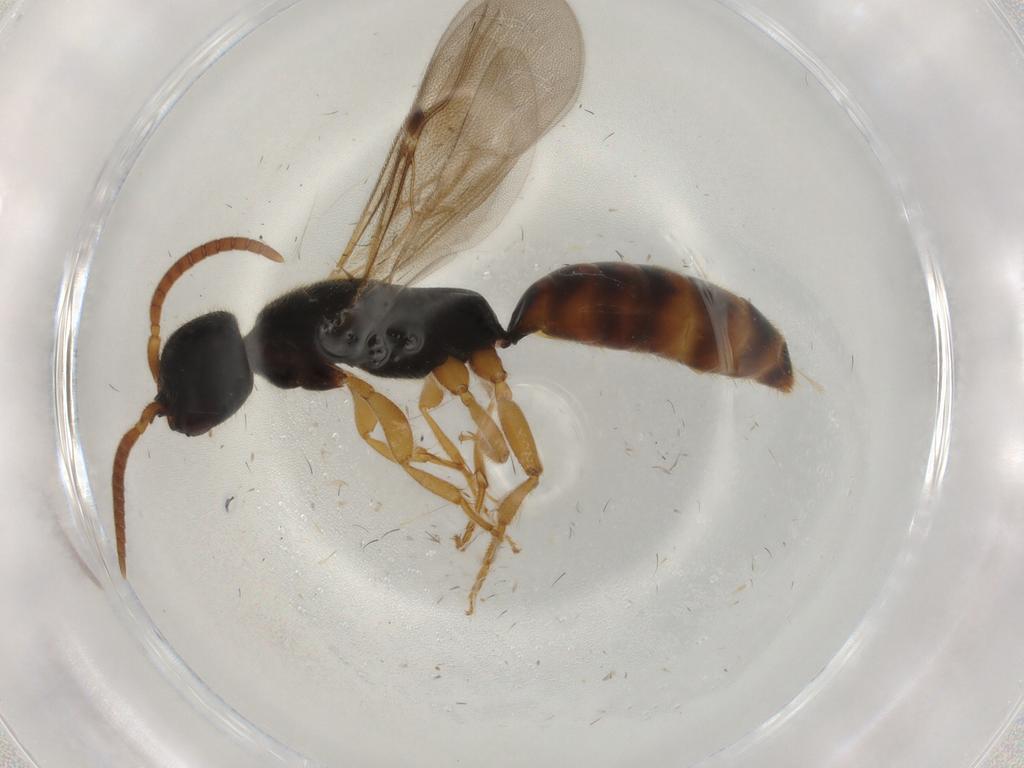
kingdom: Animalia
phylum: Arthropoda
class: Insecta
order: Hymenoptera
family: Bethylidae
